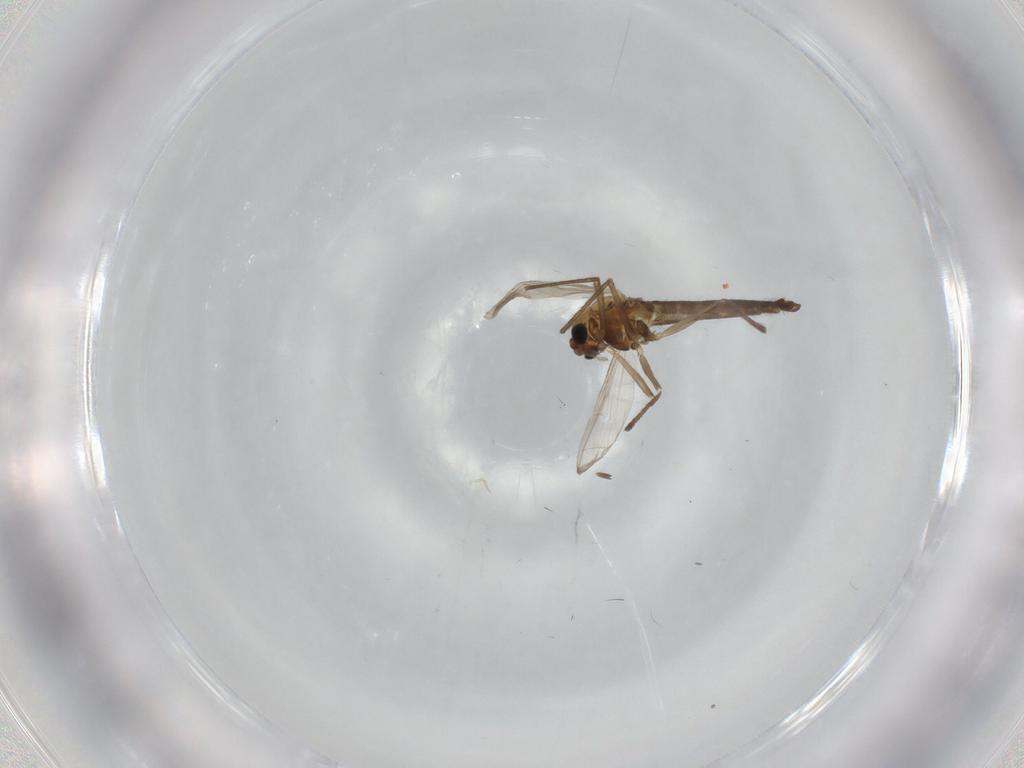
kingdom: Animalia
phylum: Arthropoda
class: Insecta
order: Diptera
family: Chironomidae
